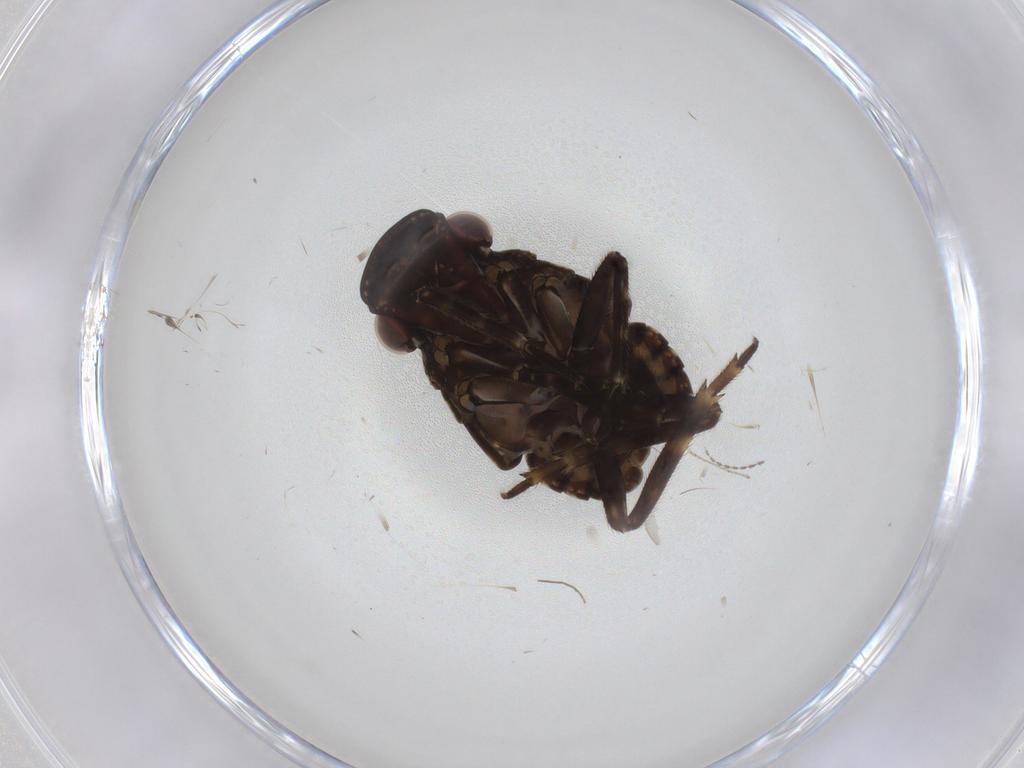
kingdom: Animalia
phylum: Arthropoda
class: Insecta
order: Hemiptera
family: Fulgoridae
